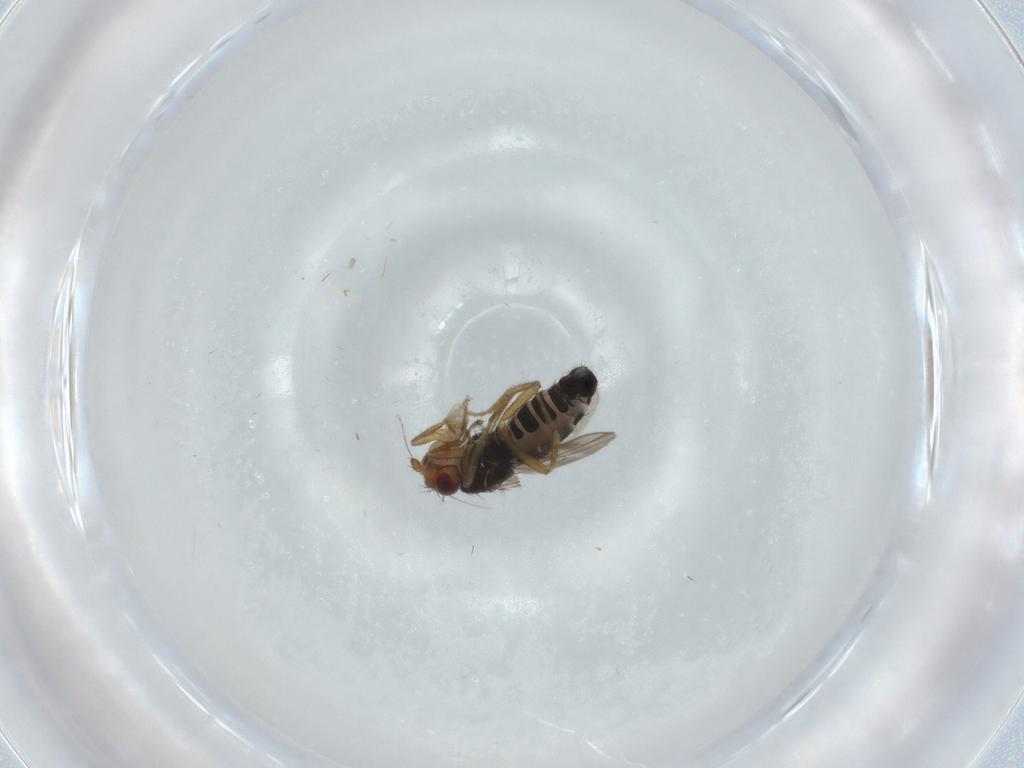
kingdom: Animalia
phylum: Arthropoda
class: Insecta
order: Diptera
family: Sphaeroceridae
